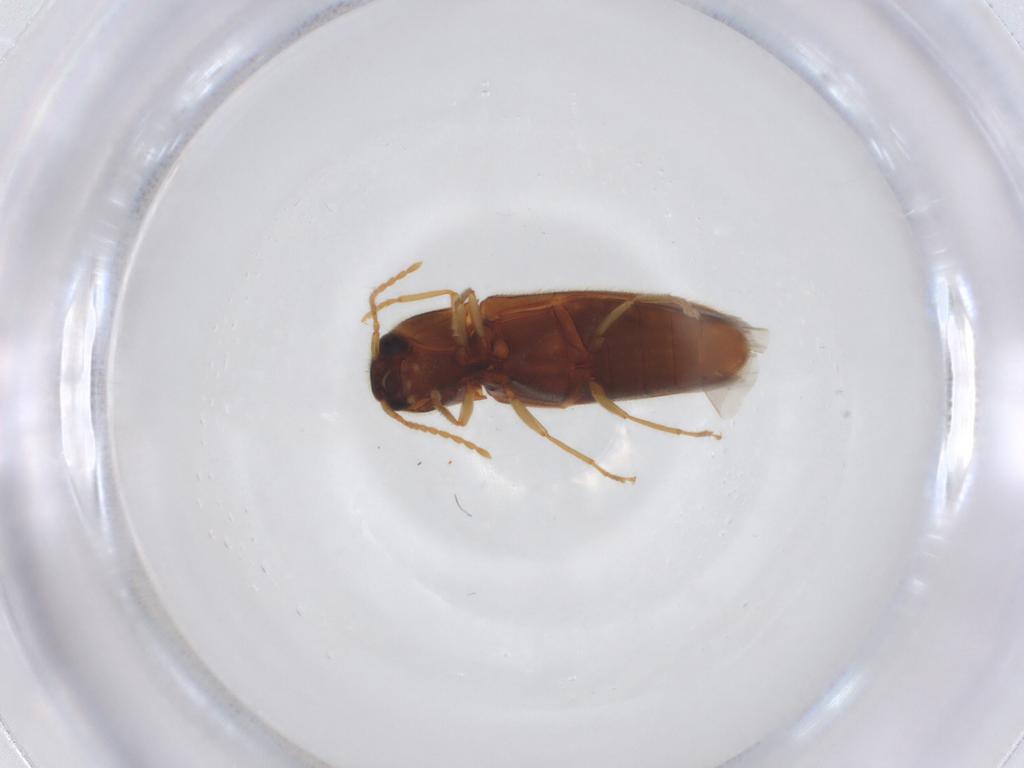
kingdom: Animalia
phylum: Arthropoda
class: Insecta
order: Coleoptera
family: Elateridae
